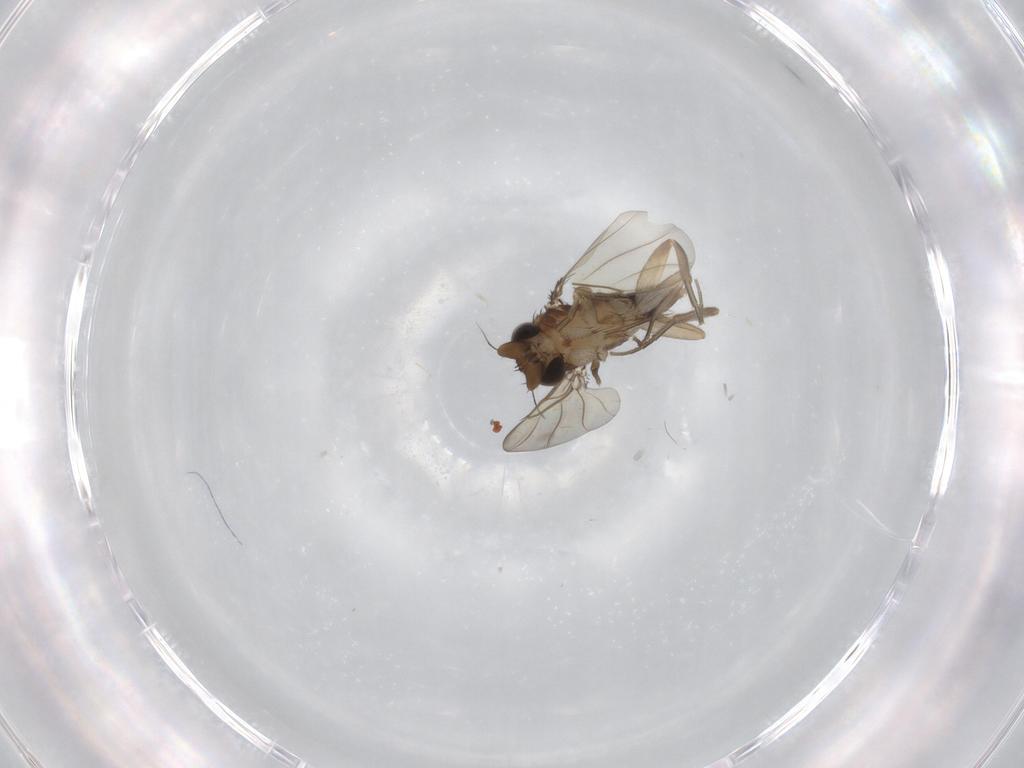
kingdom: Animalia
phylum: Arthropoda
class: Insecta
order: Diptera
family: Phoridae
